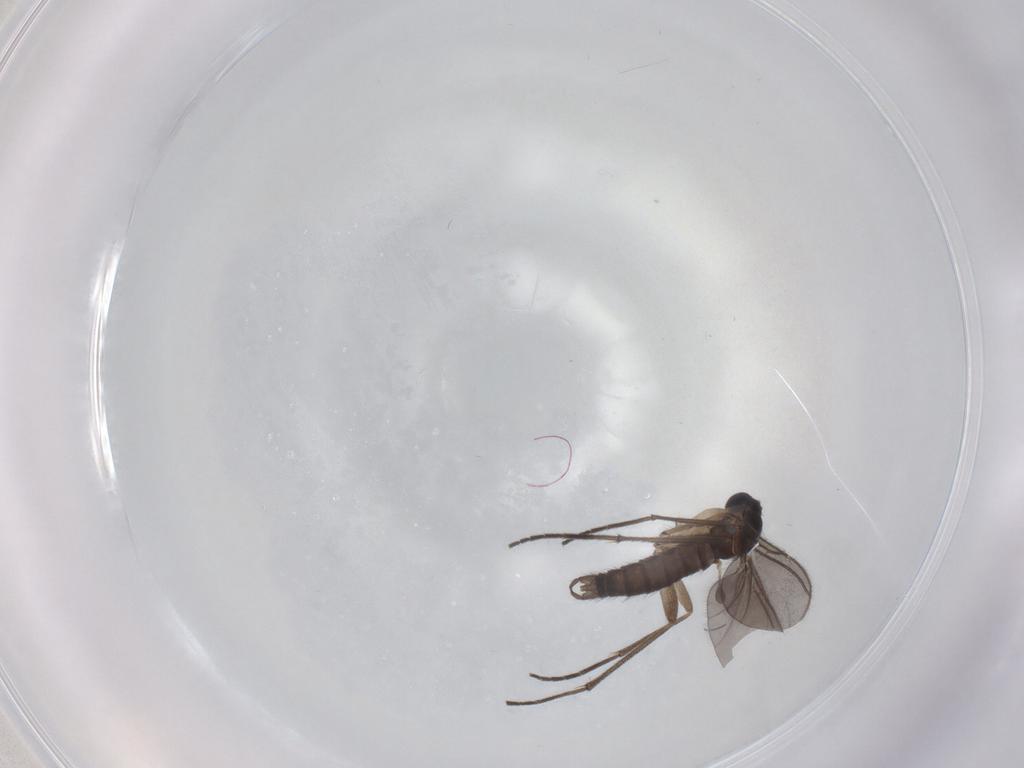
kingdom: Animalia
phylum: Arthropoda
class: Insecta
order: Diptera
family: Sciaridae
